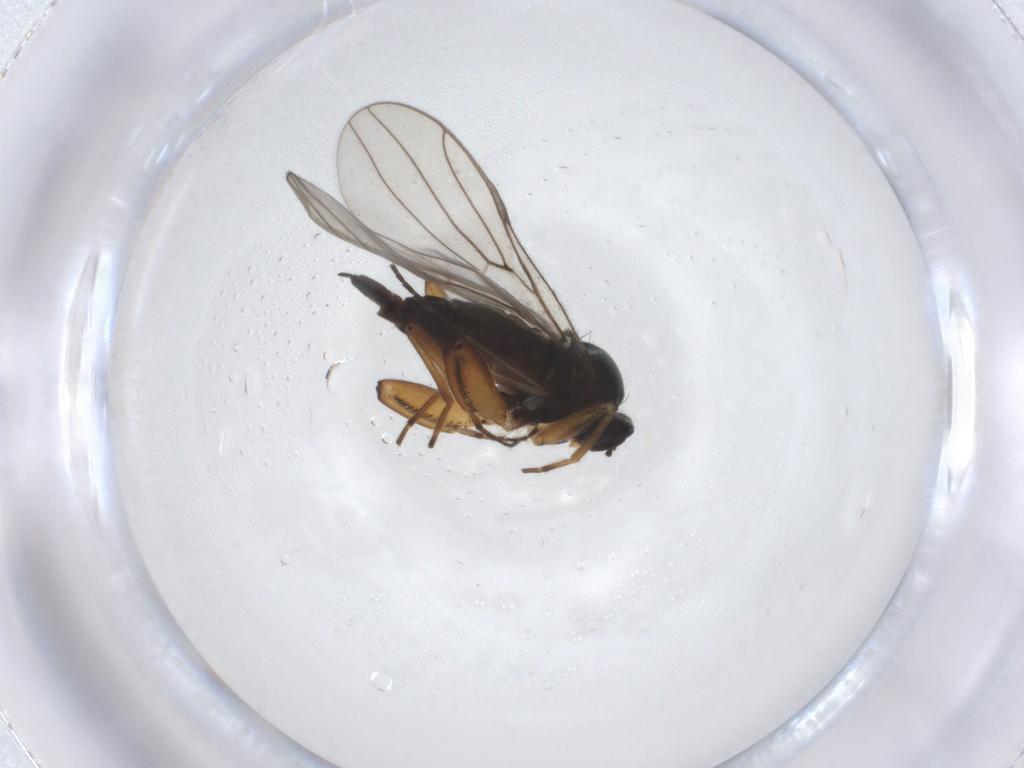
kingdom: Animalia
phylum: Arthropoda
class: Insecta
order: Diptera
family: Hybotidae
